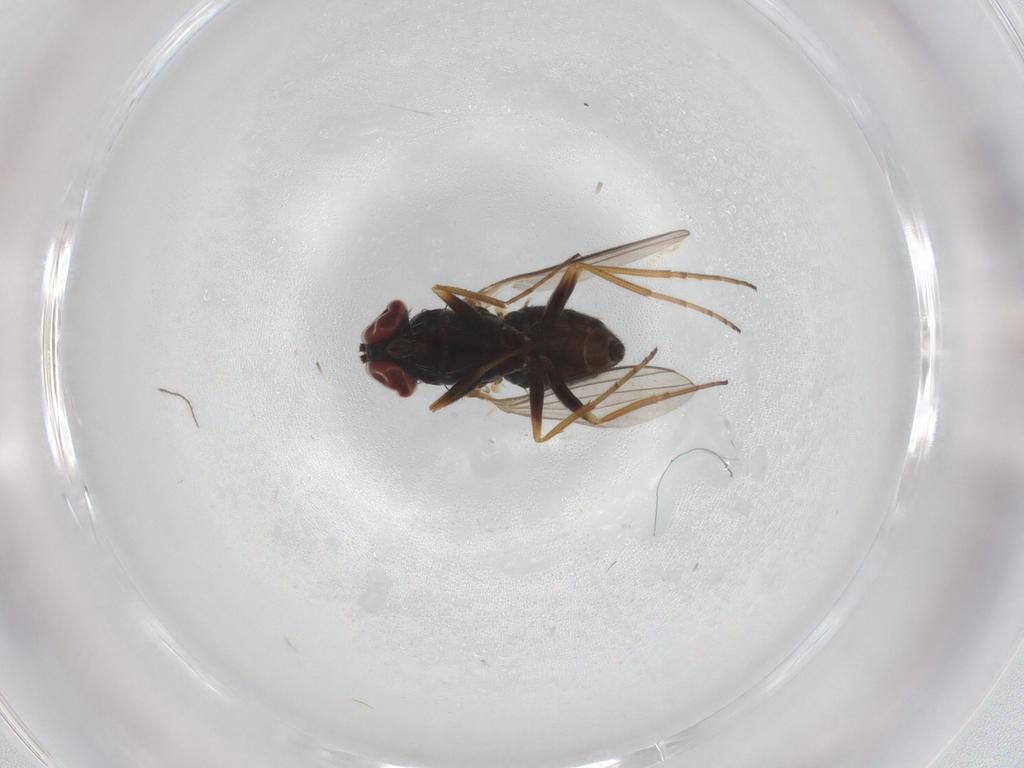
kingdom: Animalia
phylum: Arthropoda
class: Insecta
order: Diptera
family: Dolichopodidae
